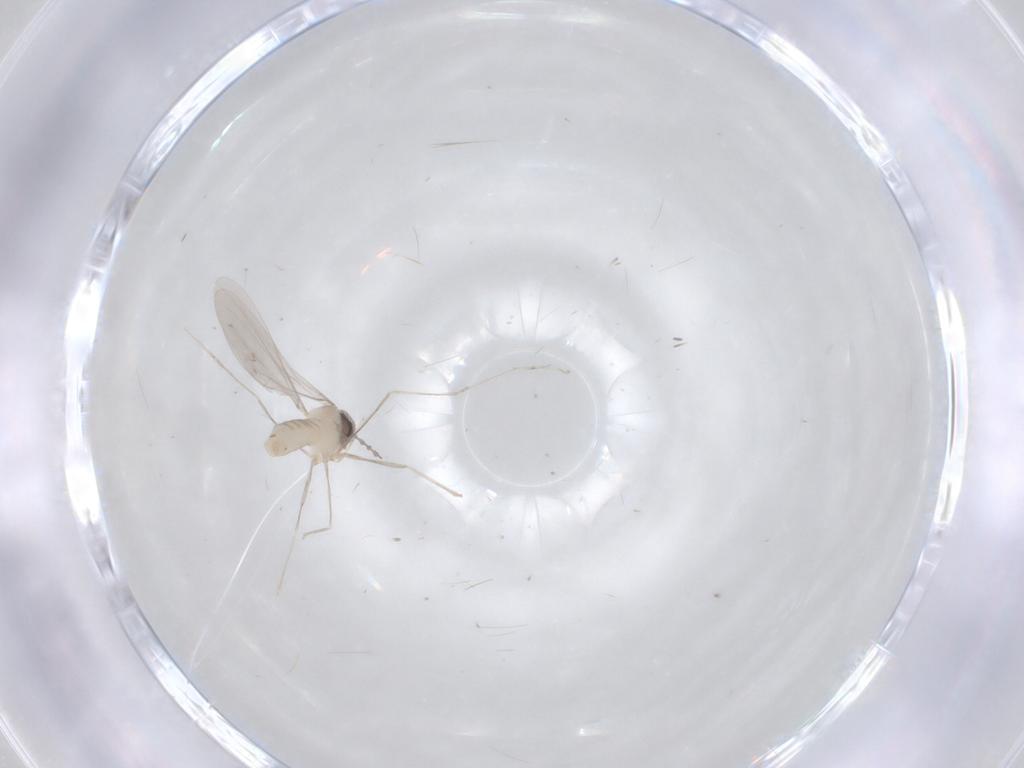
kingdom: Animalia
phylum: Arthropoda
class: Insecta
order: Diptera
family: Cecidomyiidae
